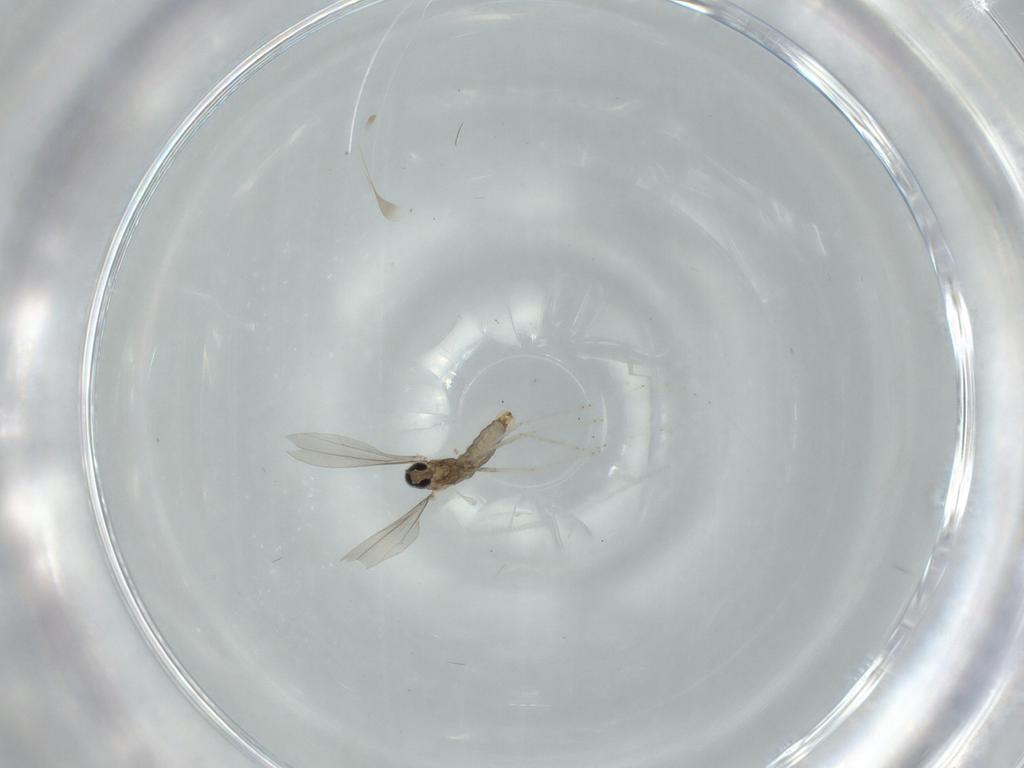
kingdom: Animalia
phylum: Arthropoda
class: Insecta
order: Diptera
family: Cecidomyiidae
